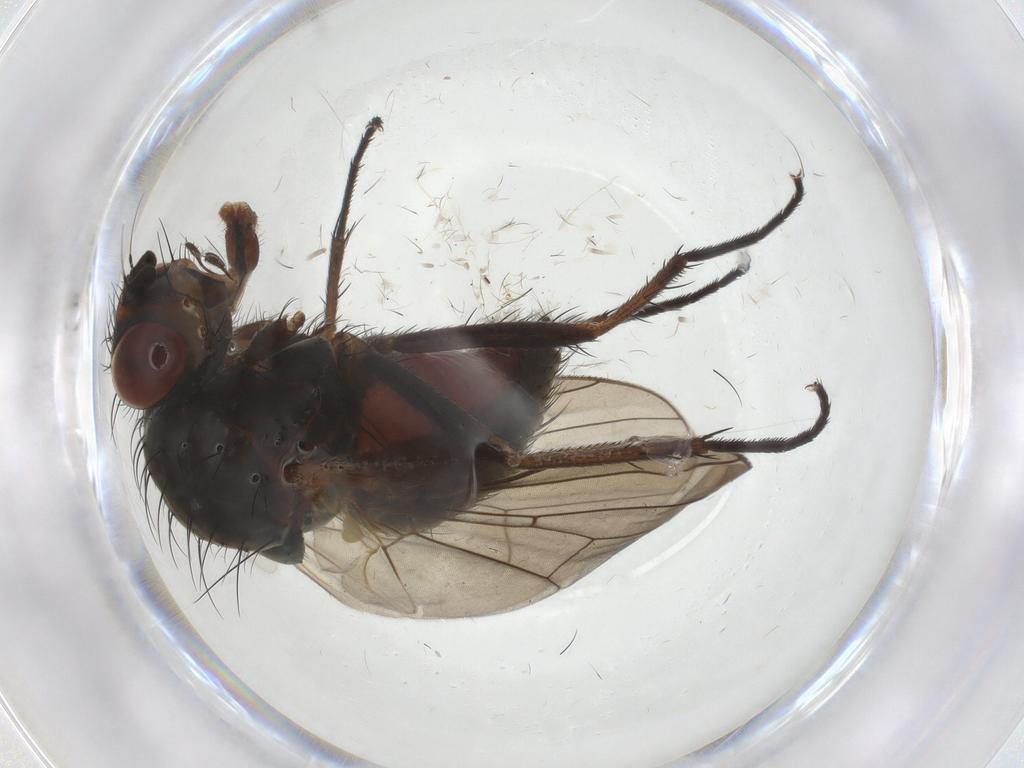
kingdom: Animalia
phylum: Arthropoda
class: Insecta
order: Diptera
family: Anthomyiidae
